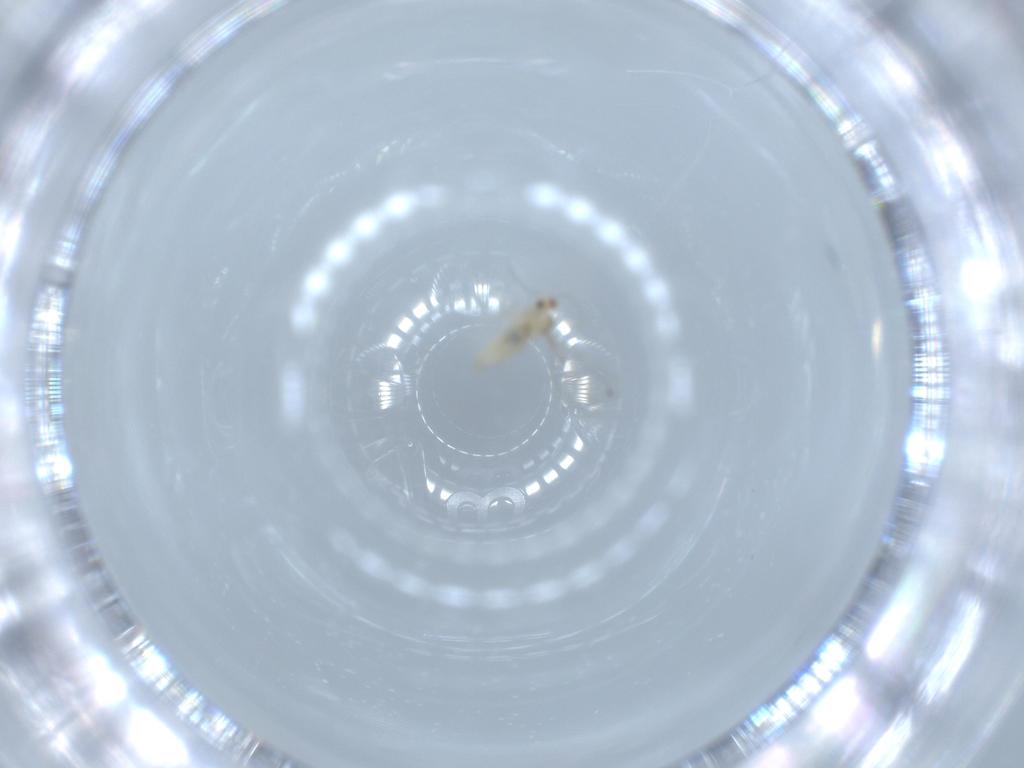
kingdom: Animalia
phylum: Arthropoda
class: Insecta
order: Diptera
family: Cecidomyiidae
